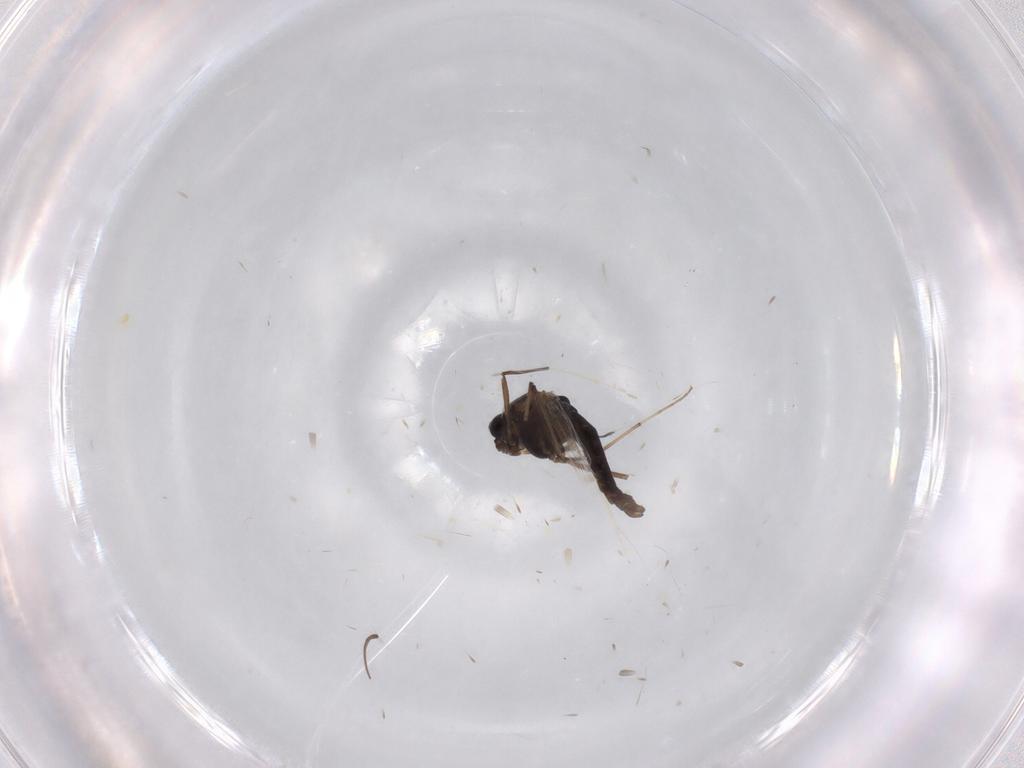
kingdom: Animalia
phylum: Arthropoda
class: Insecta
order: Diptera
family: Chironomidae
